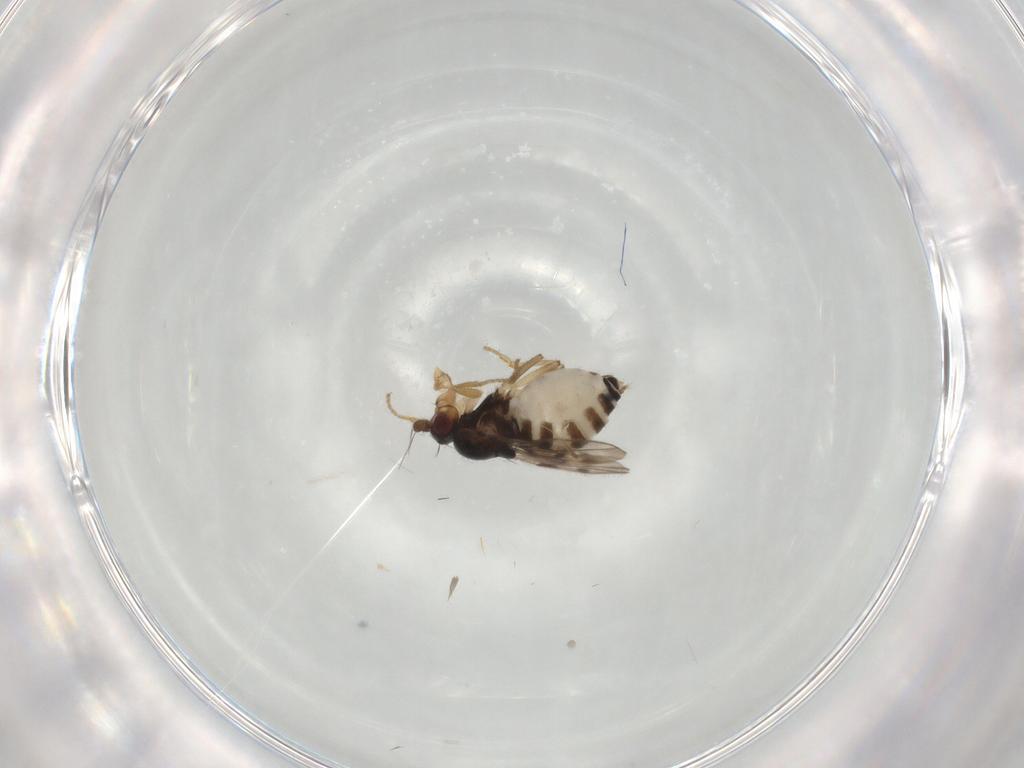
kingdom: Animalia
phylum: Arthropoda
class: Insecta
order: Diptera
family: Sphaeroceridae
